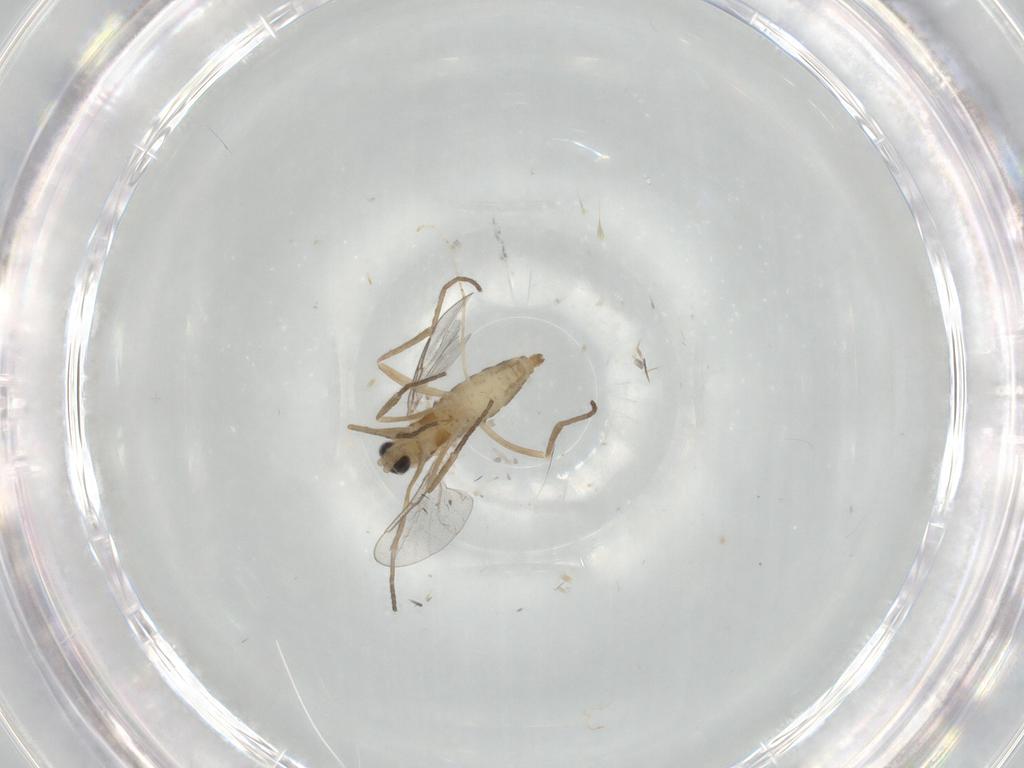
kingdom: Animalia
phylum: Arthropoda
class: Insecta
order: Diptera
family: Cecidomyiidae
